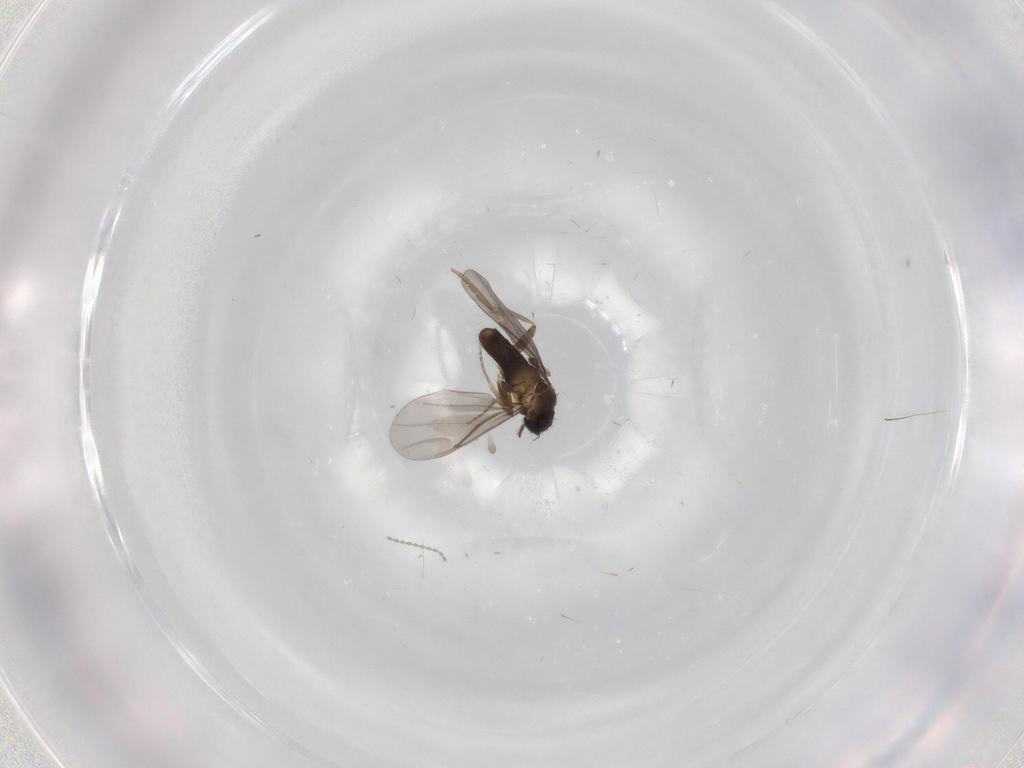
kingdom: Animalia
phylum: Arthropoda
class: Insecta
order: Diptera
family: Cecidomyiidae
